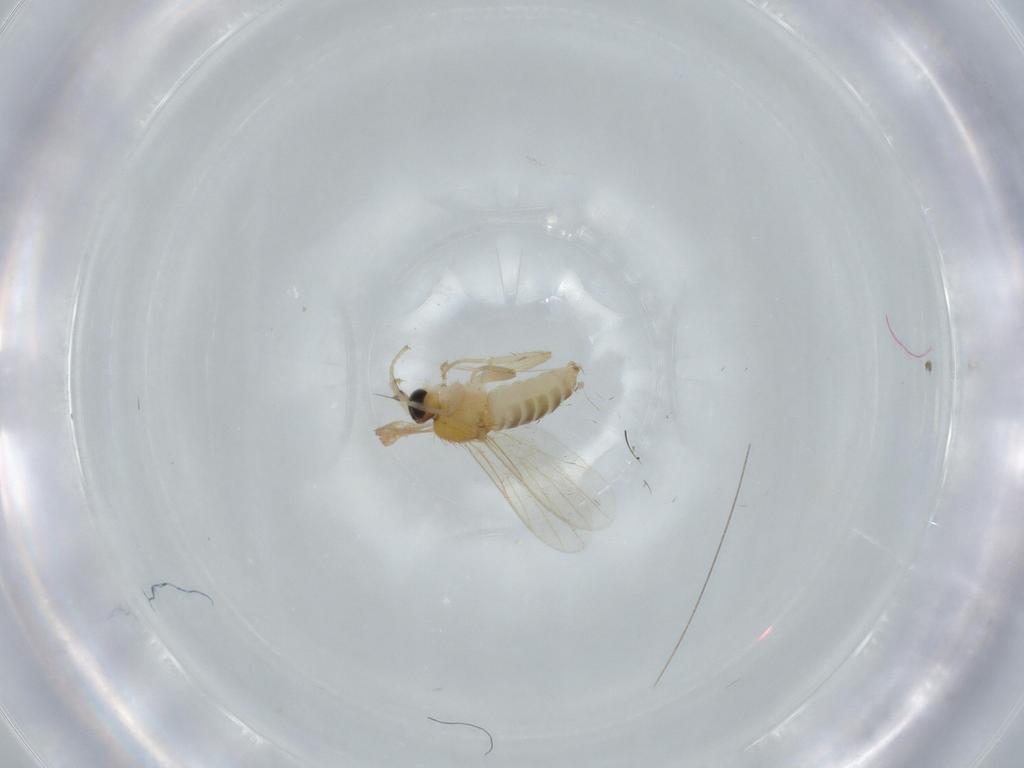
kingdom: Animalia
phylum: Arthropoda
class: Insecta
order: Diptera
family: Hybotidae
